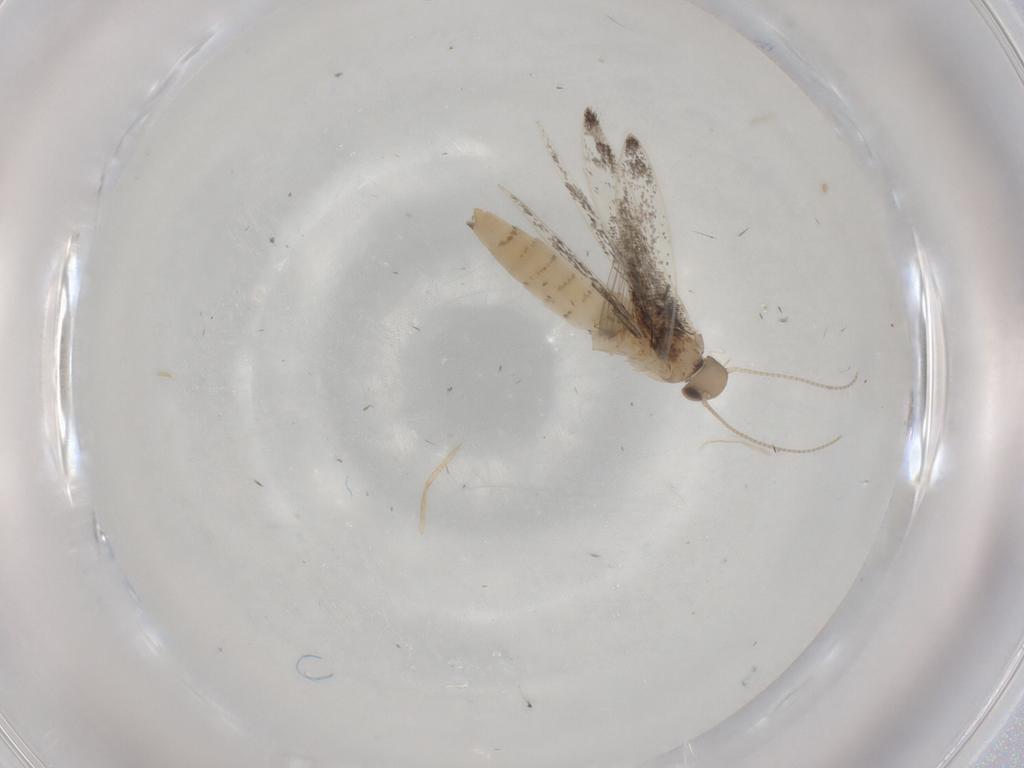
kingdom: Animalia
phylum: Arthropoda
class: Insecta
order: Lepidoptera
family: Gracillariidae
